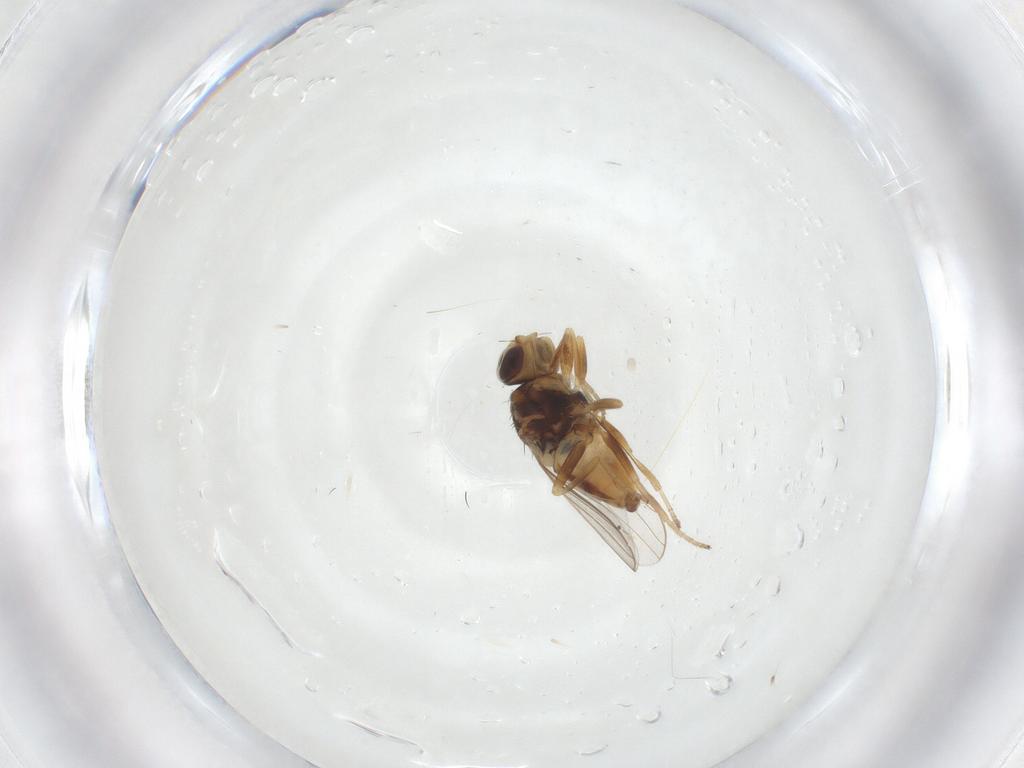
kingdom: Animalia
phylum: Arthropoda
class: Insecta
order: Diptera
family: Chloropidae
